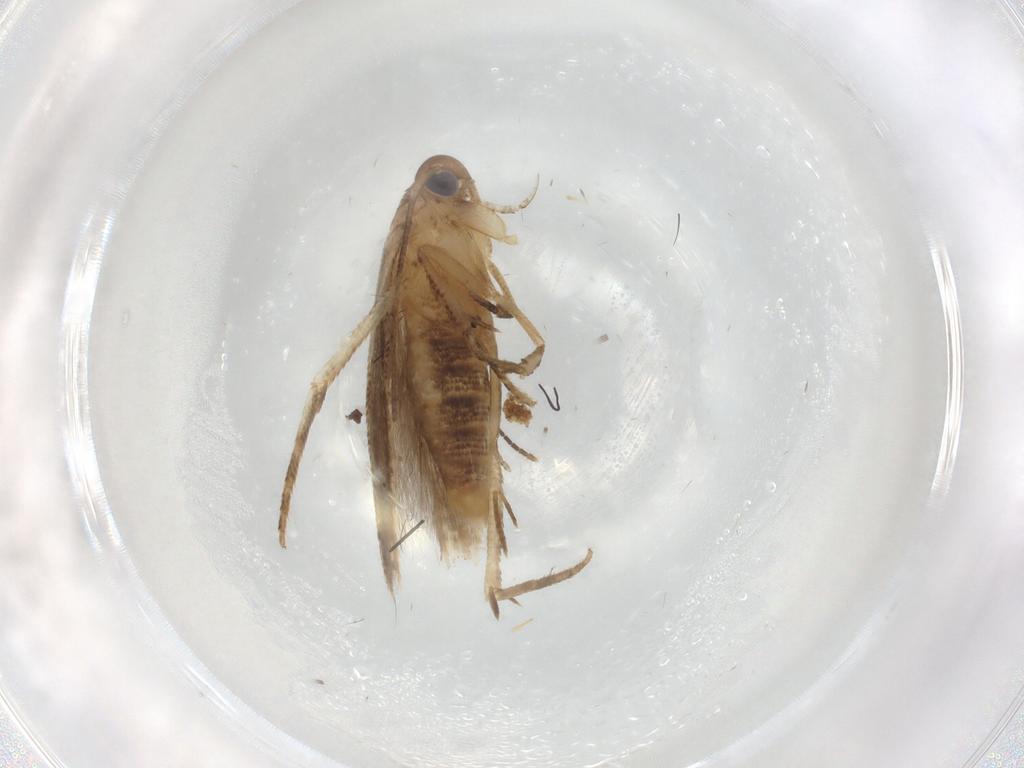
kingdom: Animalia
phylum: Arthropoda
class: Insecta
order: Lepidoptera
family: Cosmopterigidae
